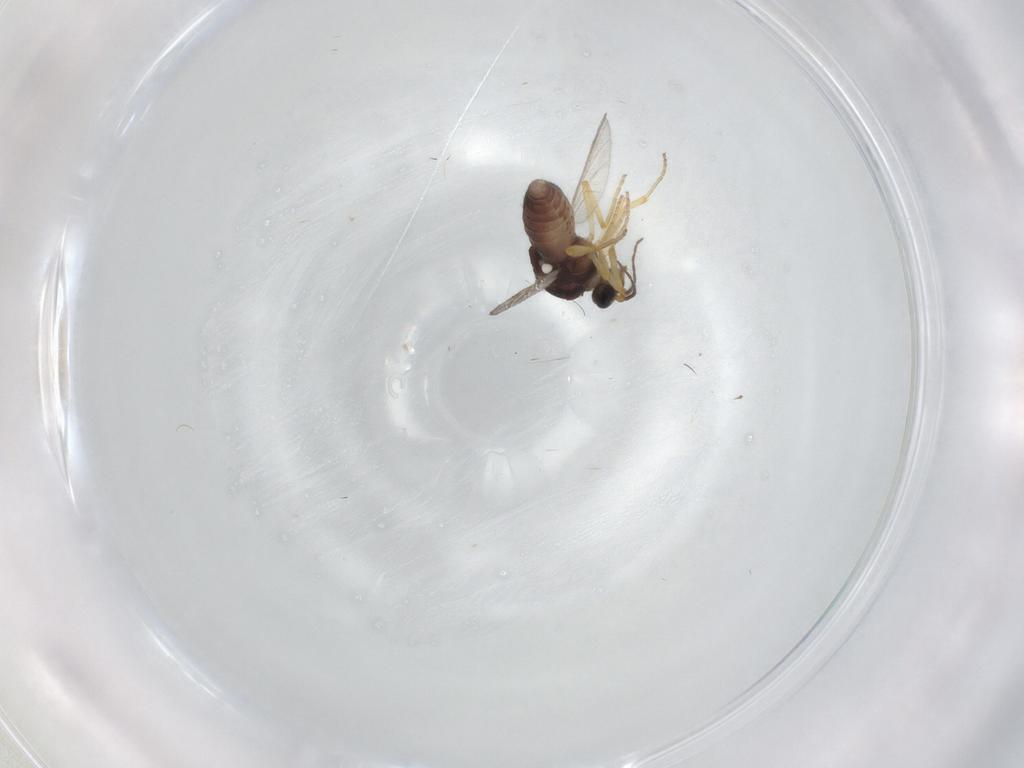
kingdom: Animalia
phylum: Arthropoda
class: Insecta
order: Diptera
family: Ceratopogonidae
